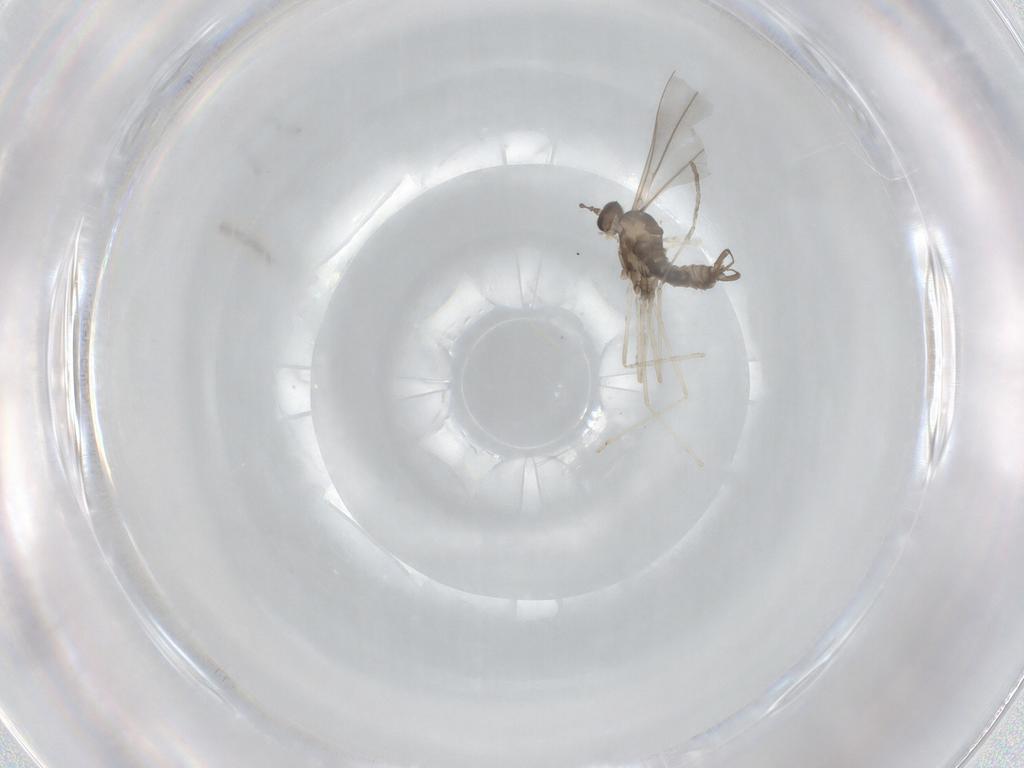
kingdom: Animalia
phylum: Arthropoda
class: Insecta
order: Diptera
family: Cecidomyiidae
